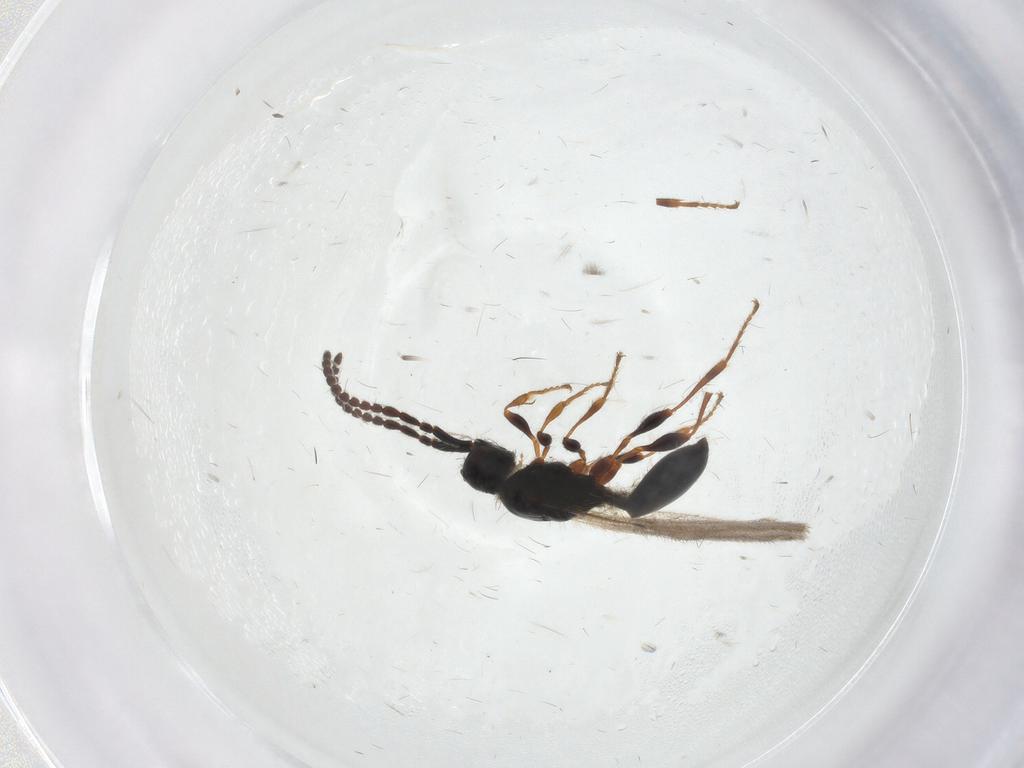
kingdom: Animalia
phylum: Arthropoda
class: Insecta
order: Hymenoptera
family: Diapriidae
